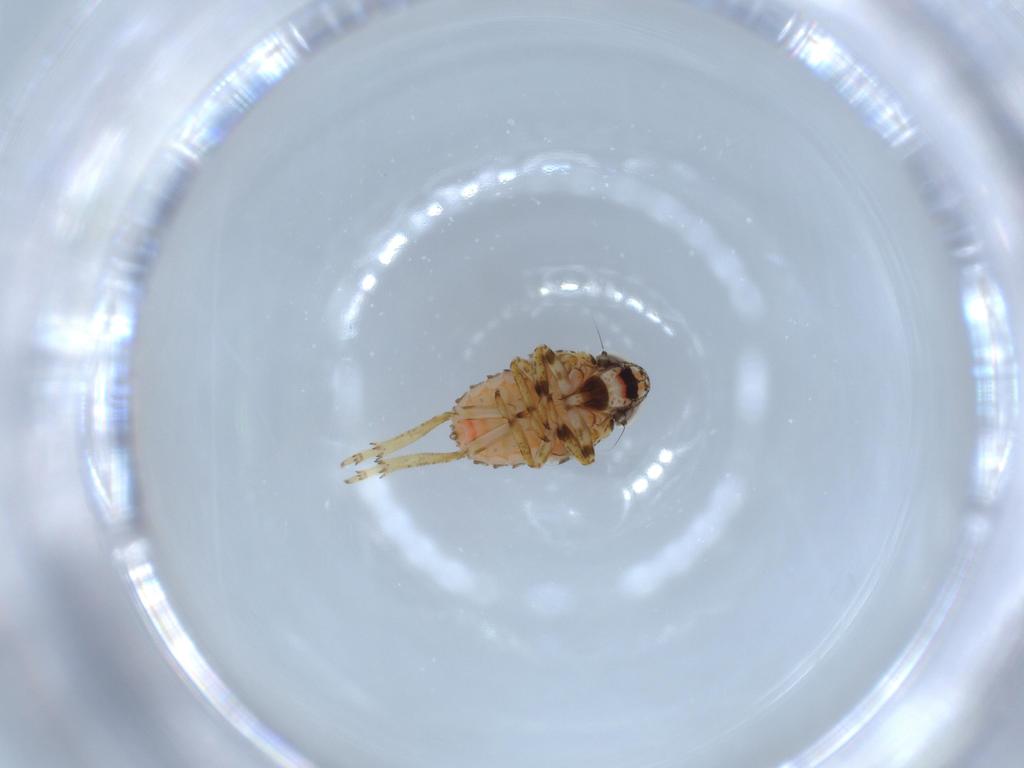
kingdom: Animalia
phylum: Arthropoda
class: Insecta
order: Hemiptera
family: Issidae
